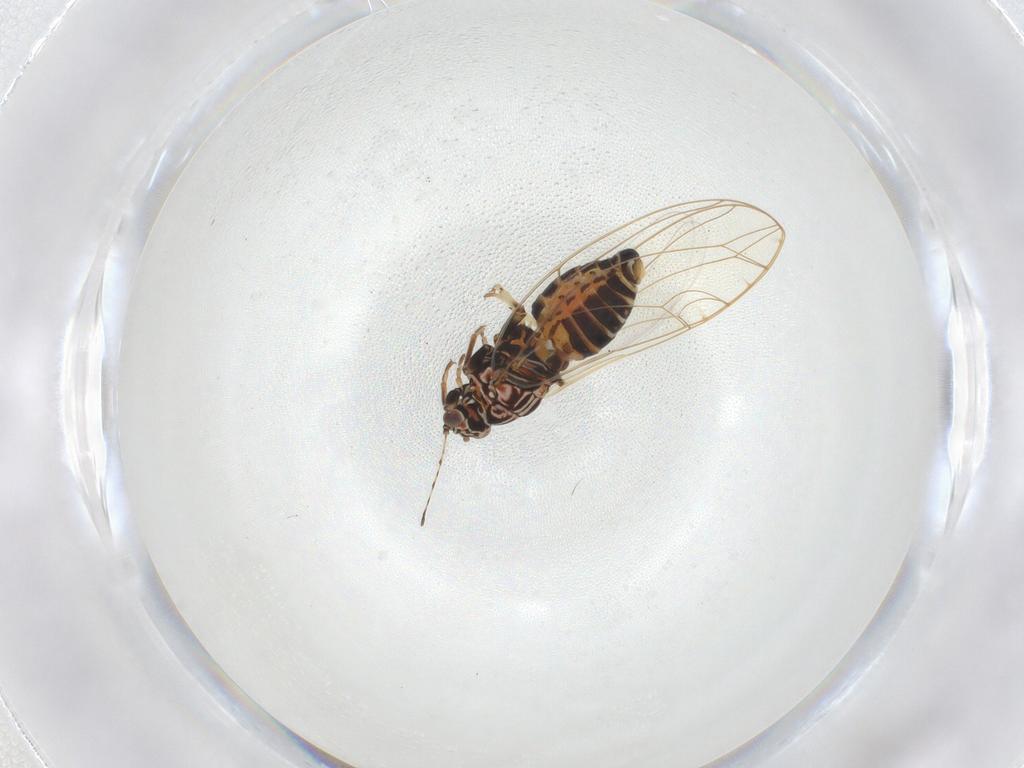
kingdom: Animalia
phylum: Arthropoda
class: Insecta
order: Hemiptera
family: Triozidae
